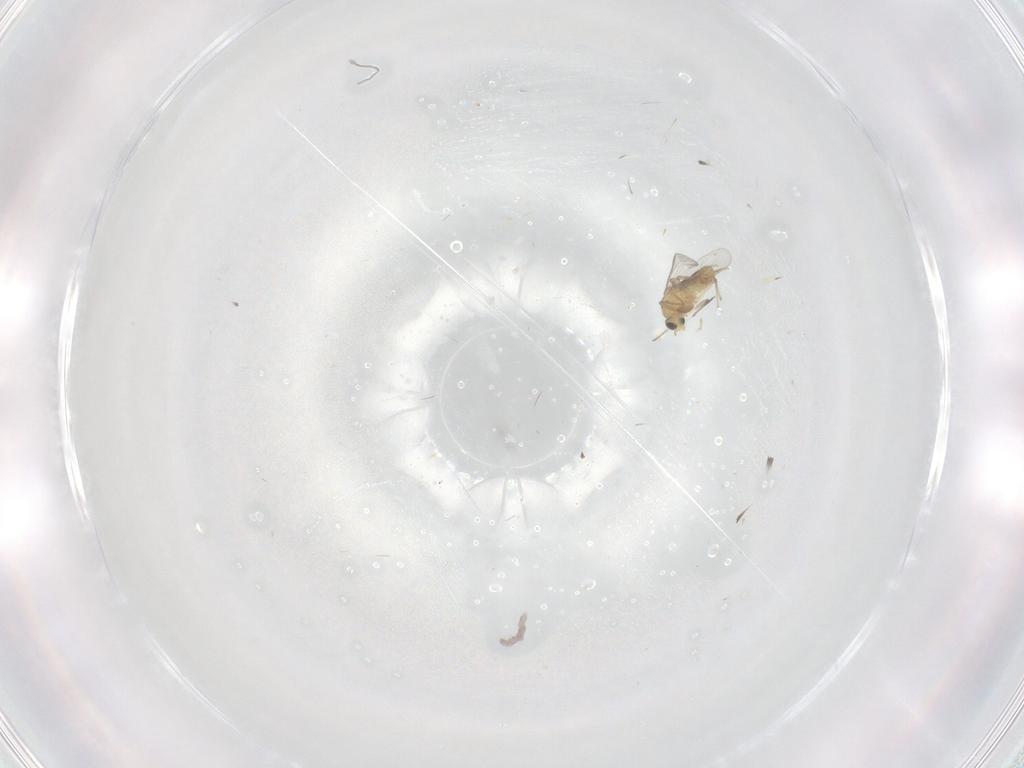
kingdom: Animalia
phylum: Arthropoda
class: Insecta
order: Diptera
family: Chironomidae
